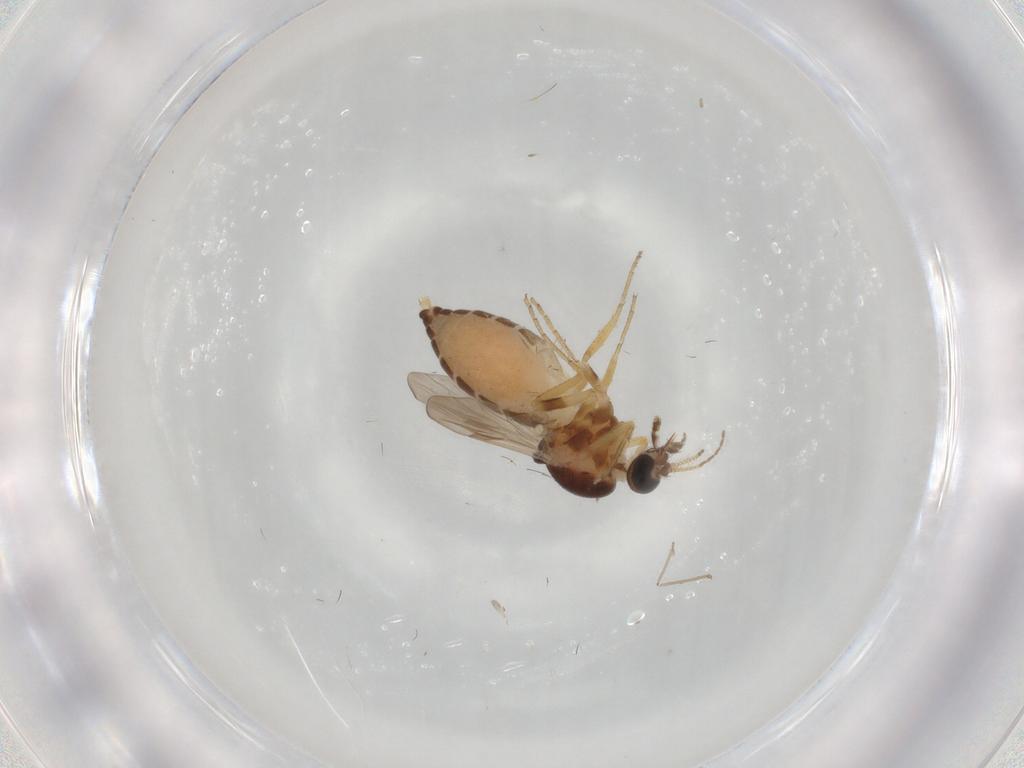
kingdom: Animalia
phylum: Arthropoda
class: Insecta
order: Diptera
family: Ceratopogonidae
